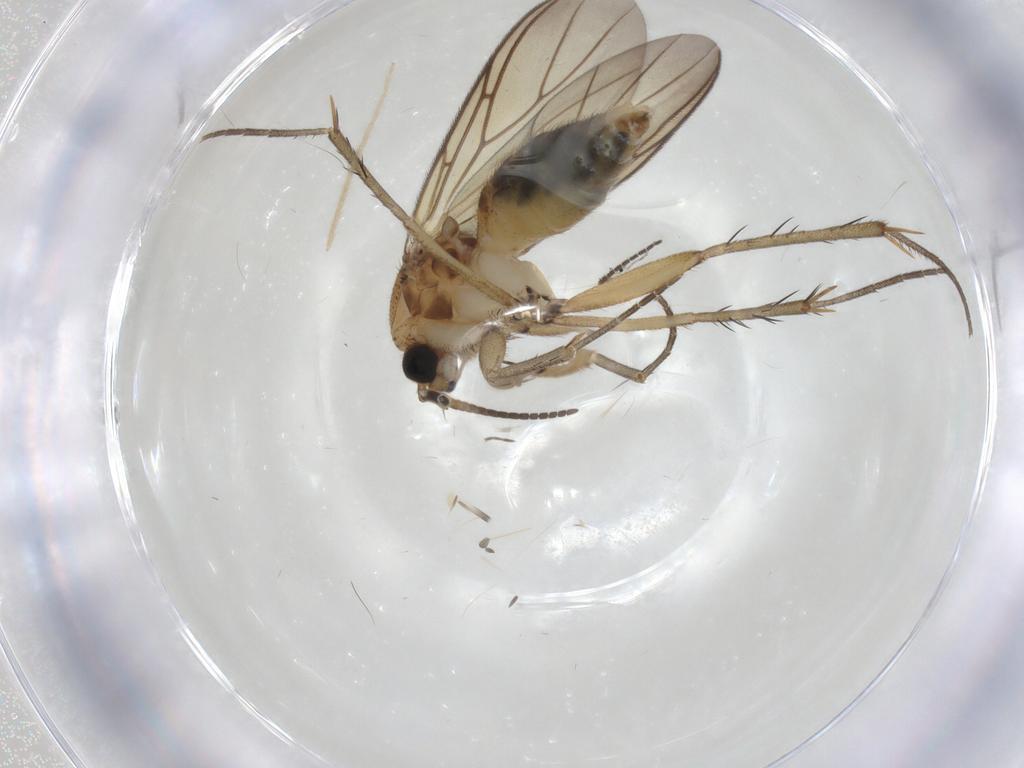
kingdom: Animalia
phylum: Arthropoda
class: Insecta
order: Diptera
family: Mycetophilidae
